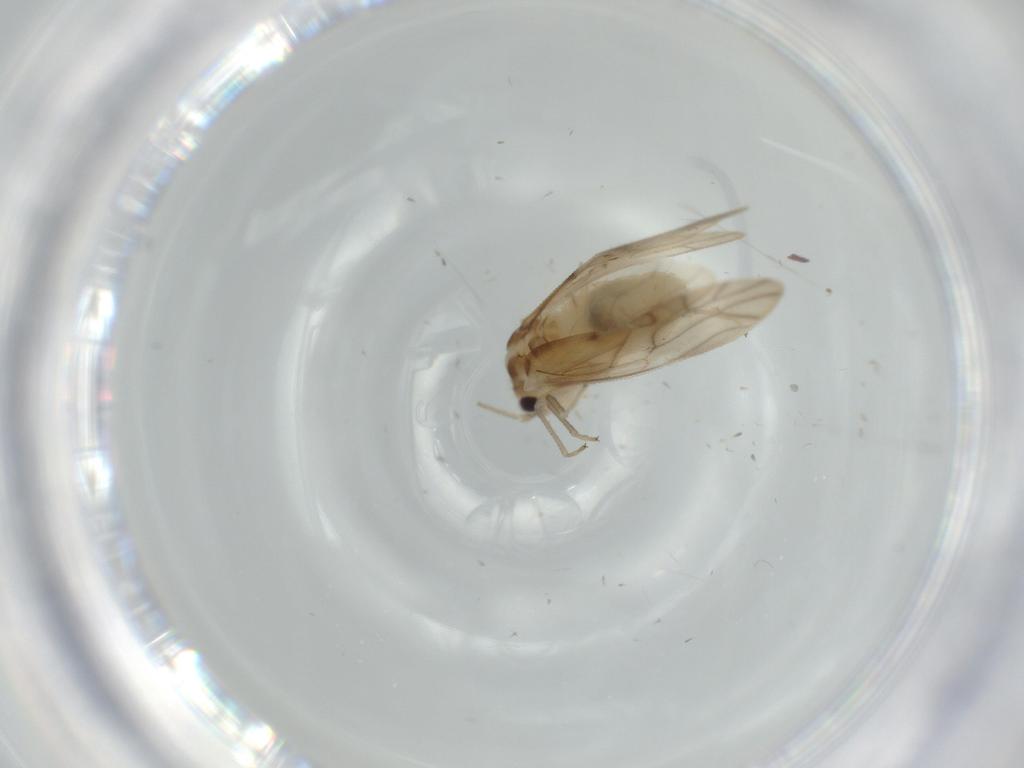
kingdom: Animalia
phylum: Arthropoda
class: Insecta
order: Psocodea
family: Caeciliusidae
